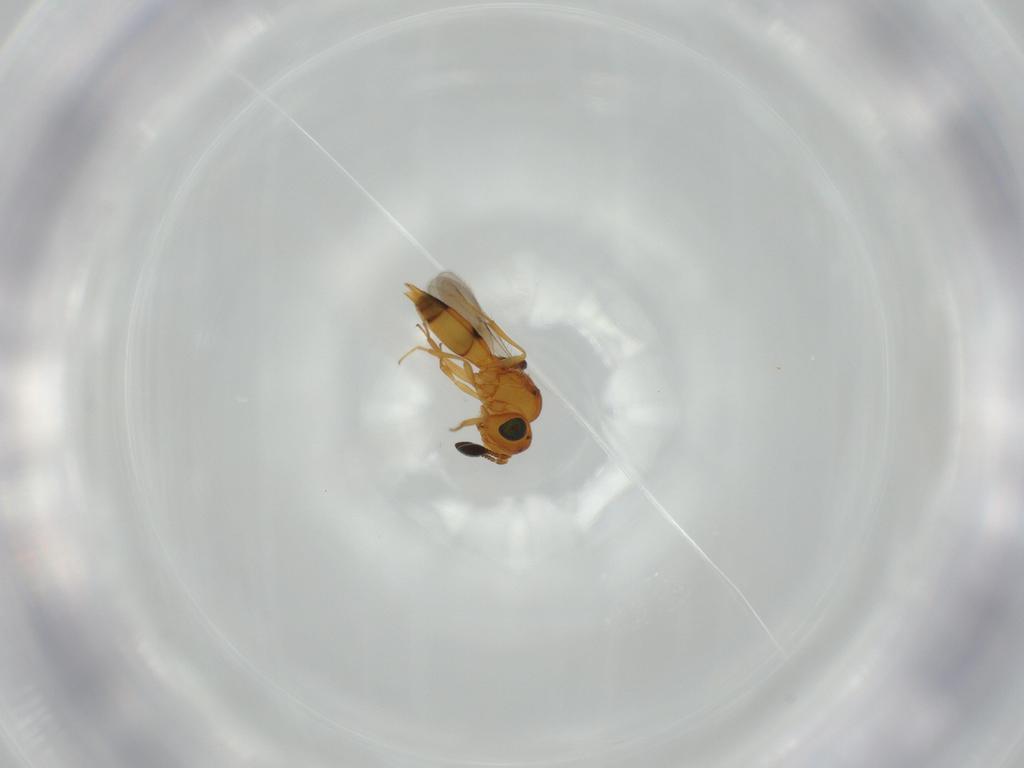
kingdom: Animalia
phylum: Arthropoda
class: Insecta
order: Hymenoptera
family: Scelionidae
